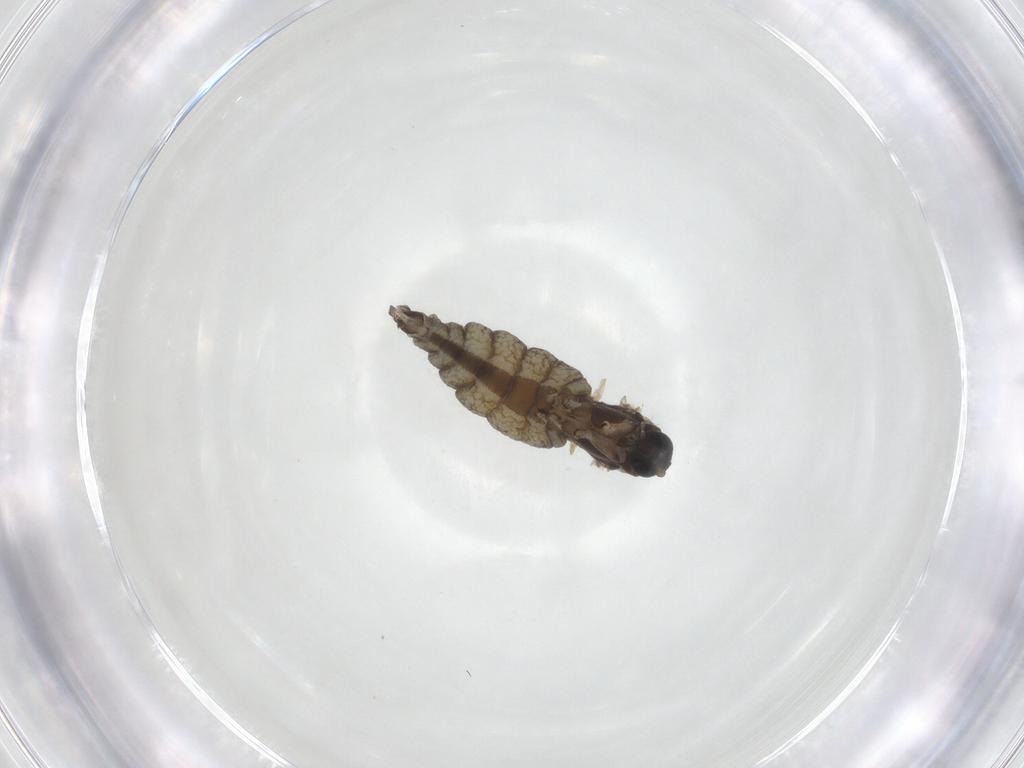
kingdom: Animalia
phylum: Arthropoda
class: Insecta
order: Diptera
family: Sciaridae
